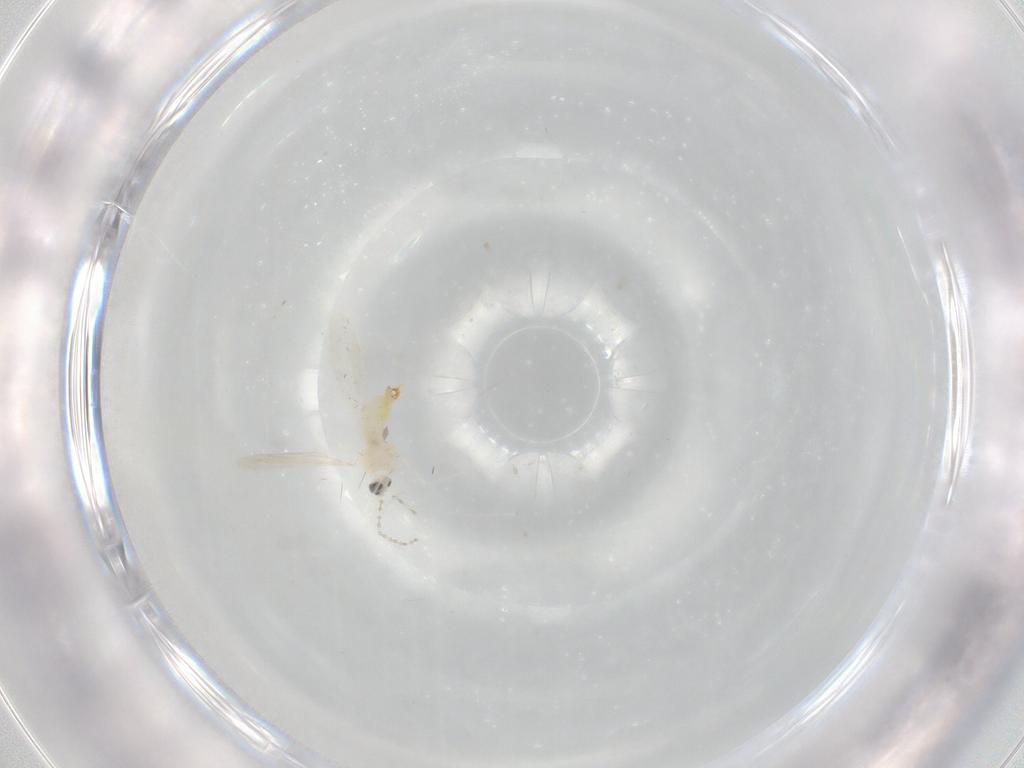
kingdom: Animalia
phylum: Arthropoda
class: Insecta
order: Diptera
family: Cecidomyiidae
